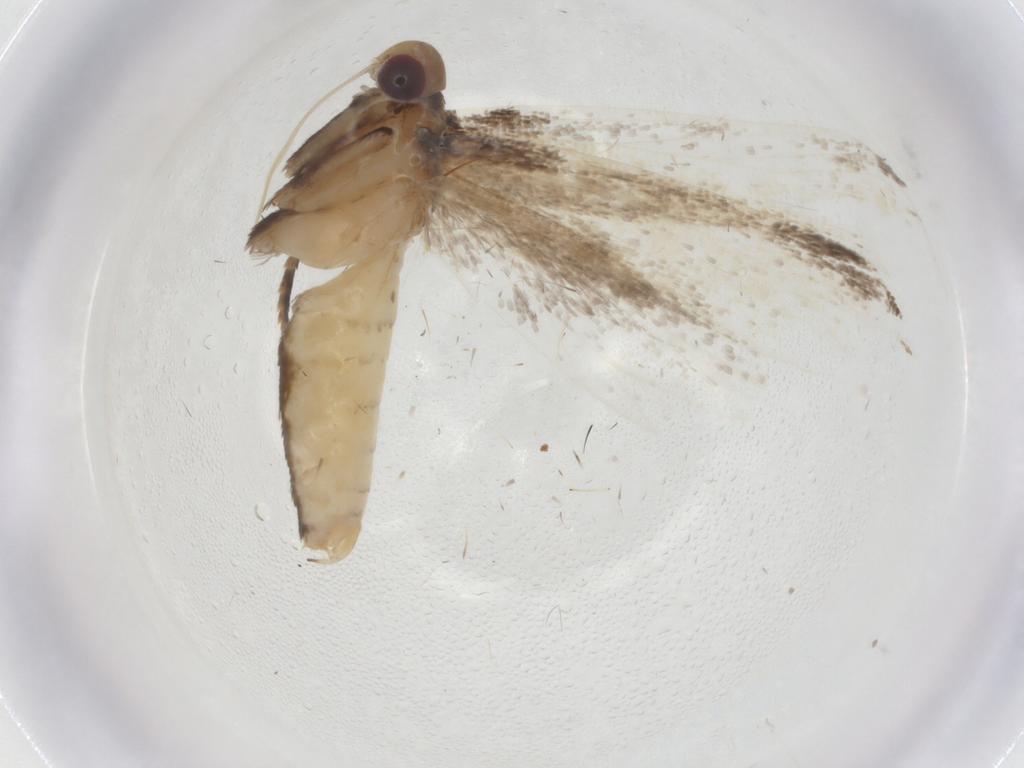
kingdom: Animalia
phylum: Arthropoda
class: Insecta
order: Lepidoptera
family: Crambidae
